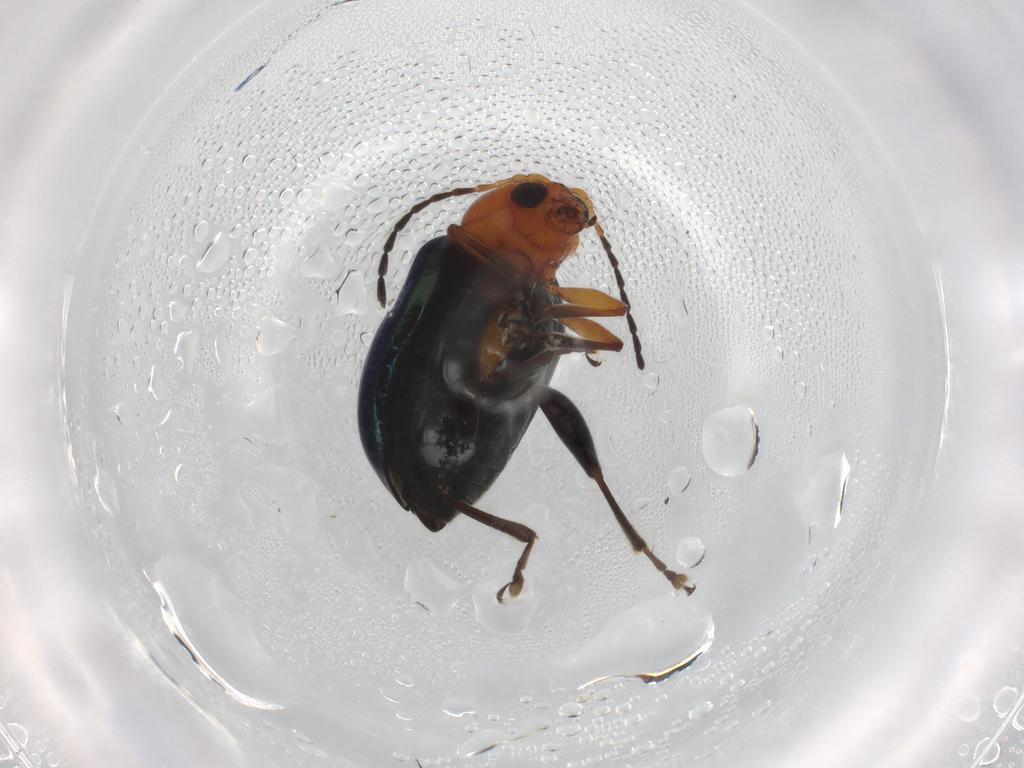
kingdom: Animalia
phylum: Arthropoda
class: Insecta
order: Coleoptera
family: Chrysomelidae
